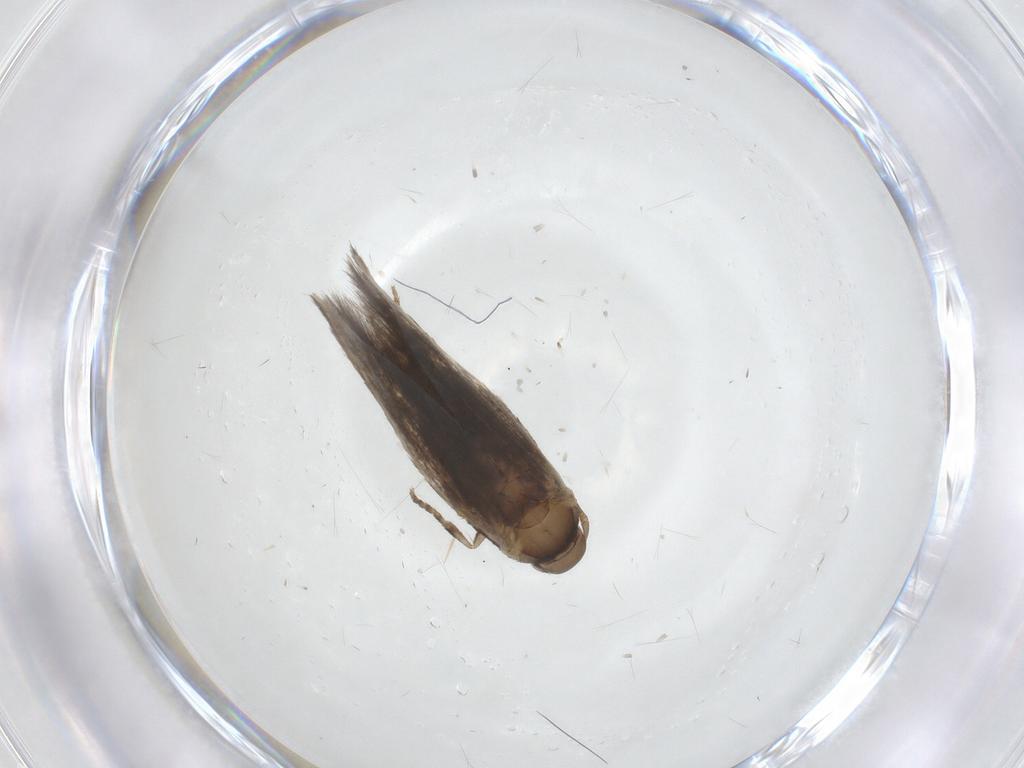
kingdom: Animalia
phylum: Arthropoda
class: Insecta
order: Lepidoptera
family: Elachistidae
